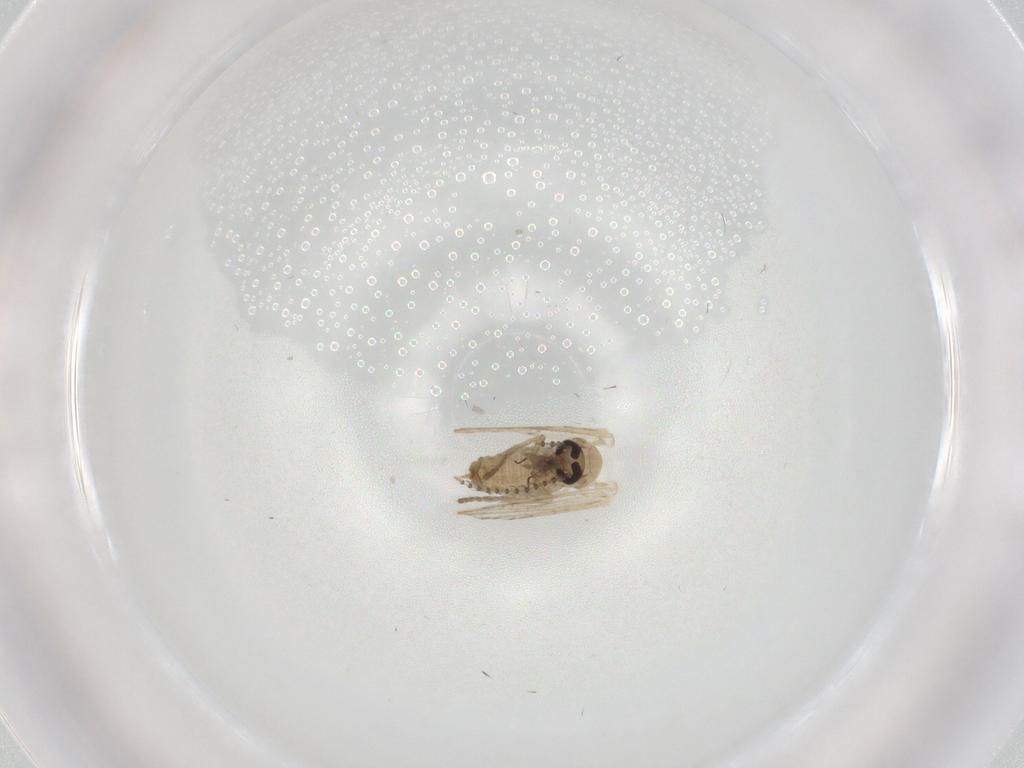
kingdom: Animalia
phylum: Arthropoda
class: Insecta
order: Diptera
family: Psychodidae
